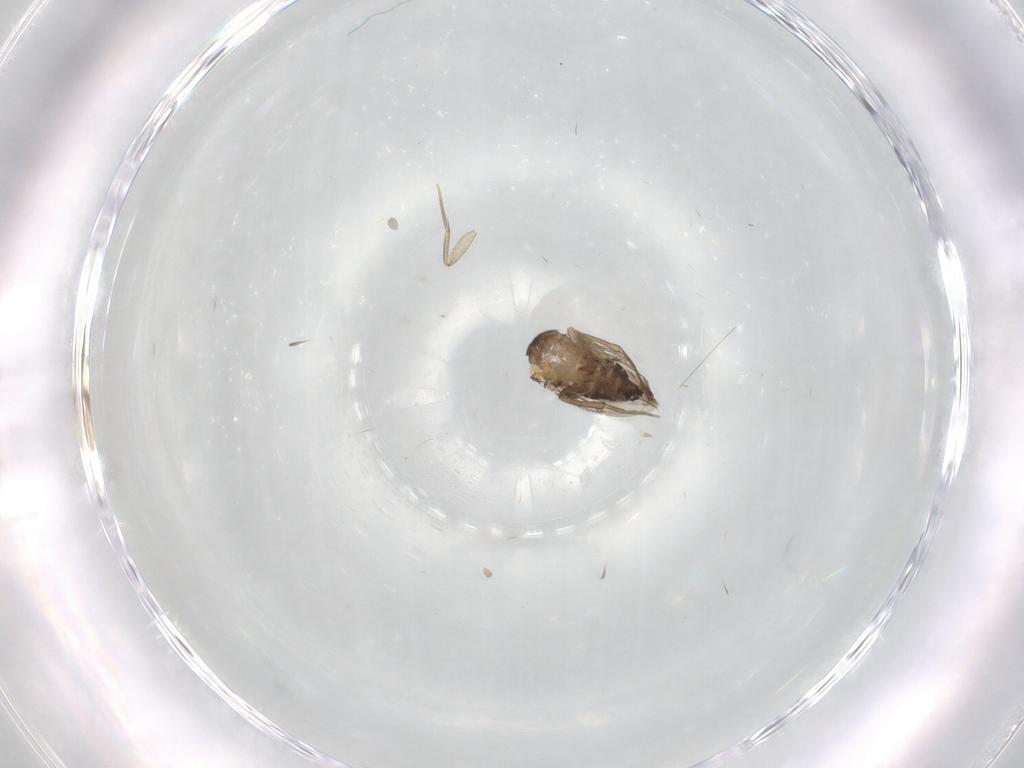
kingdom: Animalia
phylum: Arthropoda
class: Insecta
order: Diptera
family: Phoridae
